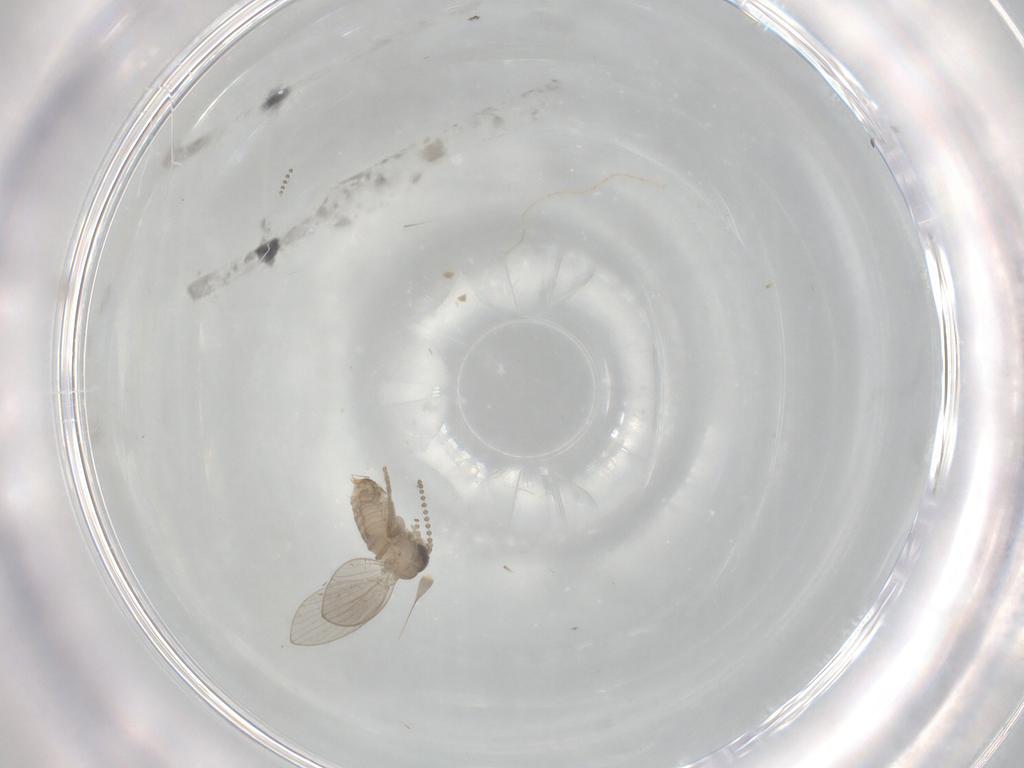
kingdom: Animalia
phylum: Arthropoda
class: Insecta
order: Diptera
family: Psychodidae
